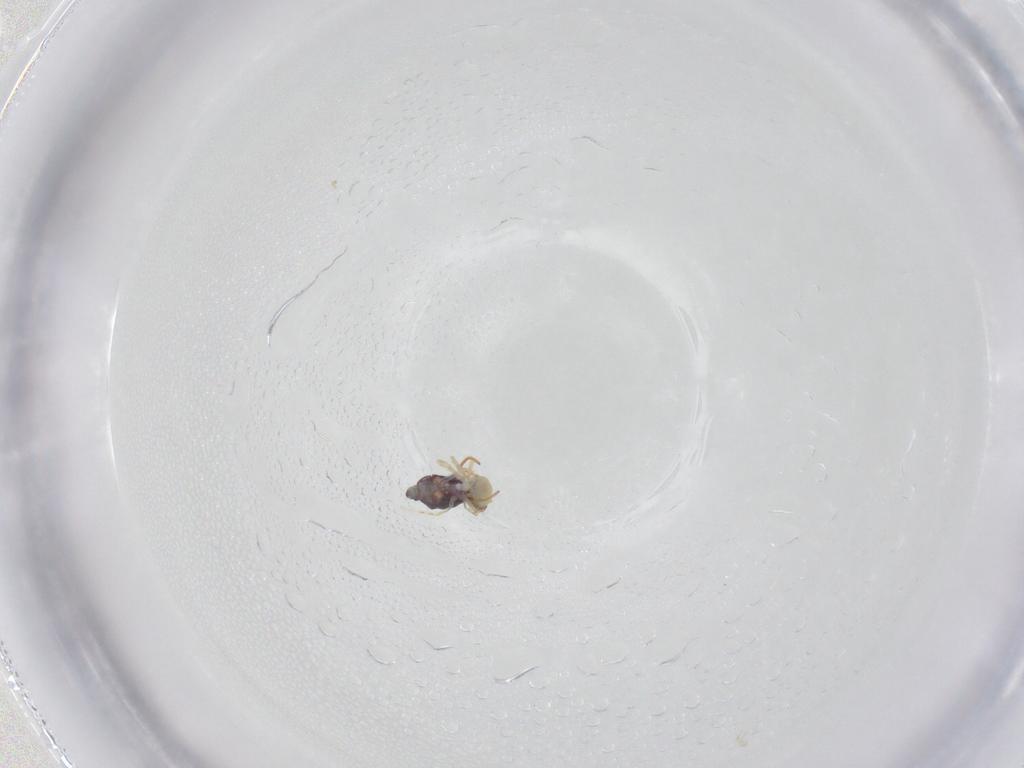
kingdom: Animalia
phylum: Arthropoda
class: Collembola
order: Symphypleona
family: Bourletiellidae
